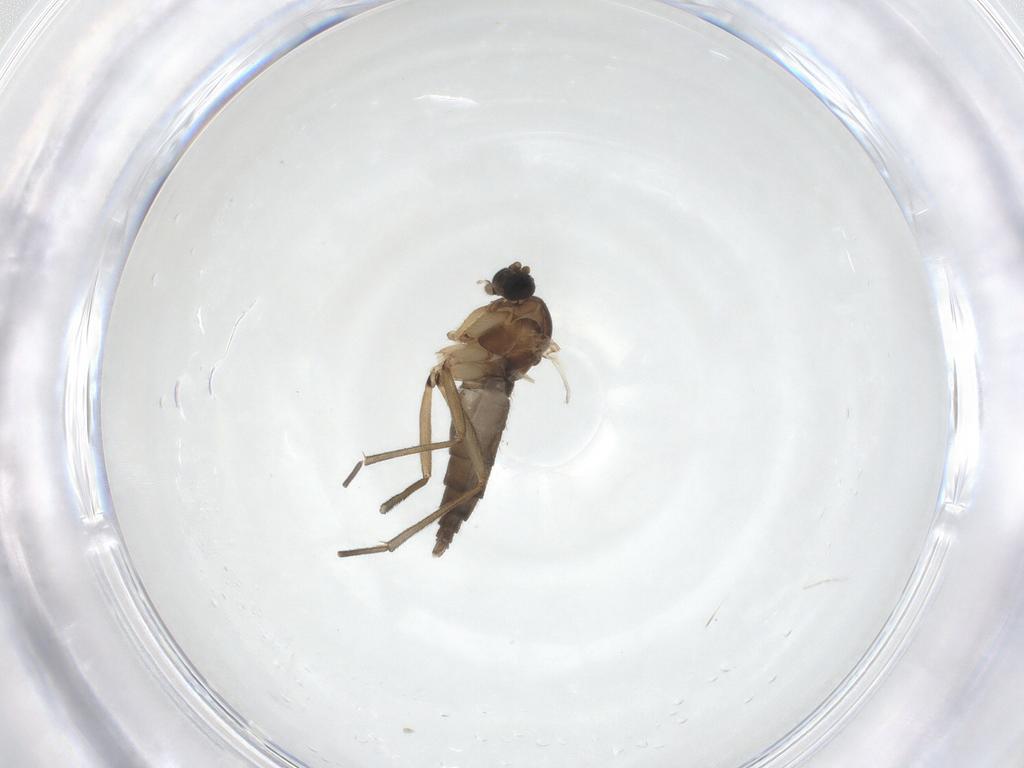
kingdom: Animalia
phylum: Arthropoda
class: Insecta
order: Diptera
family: Sciaridae
